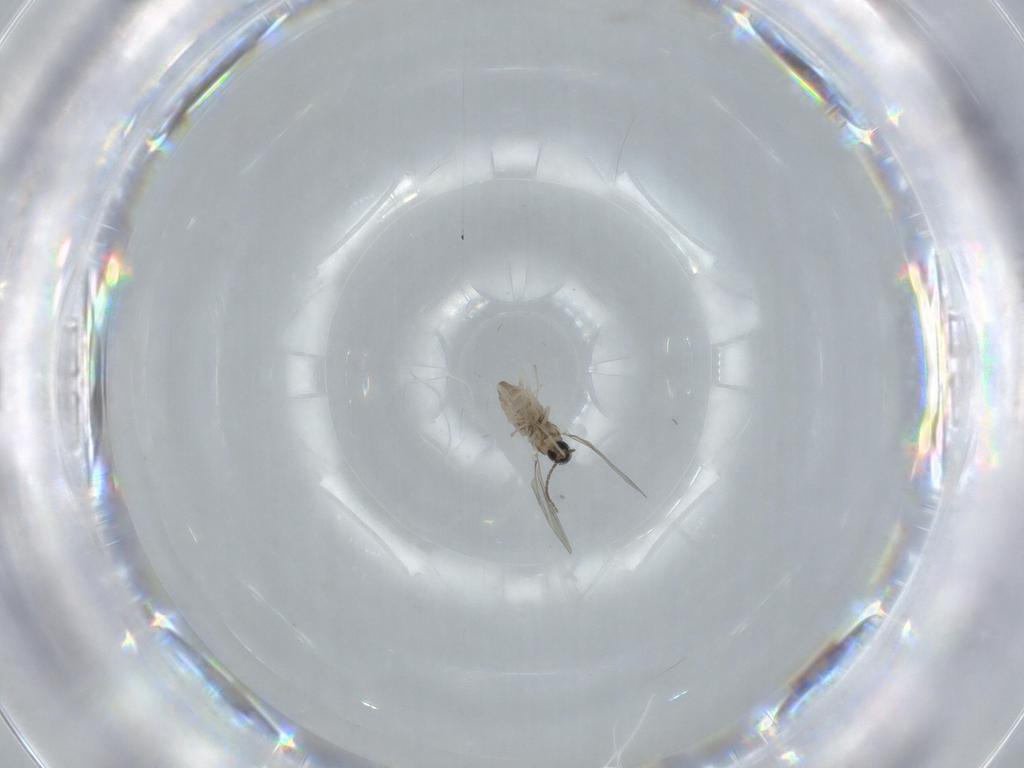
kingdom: Animalia
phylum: Arthropoda
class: Insecta
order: Diptera
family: Cecidomyiidae
